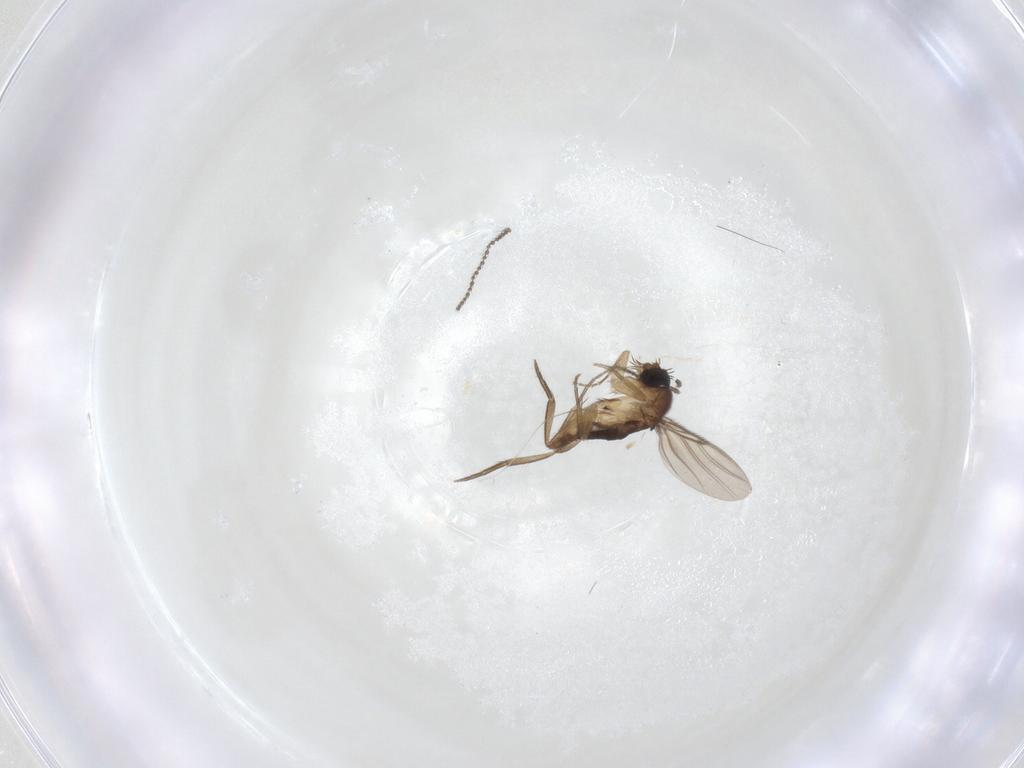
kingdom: Animalia
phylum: Arthropoda
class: Insecta
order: Diptera
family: Sciaridae
